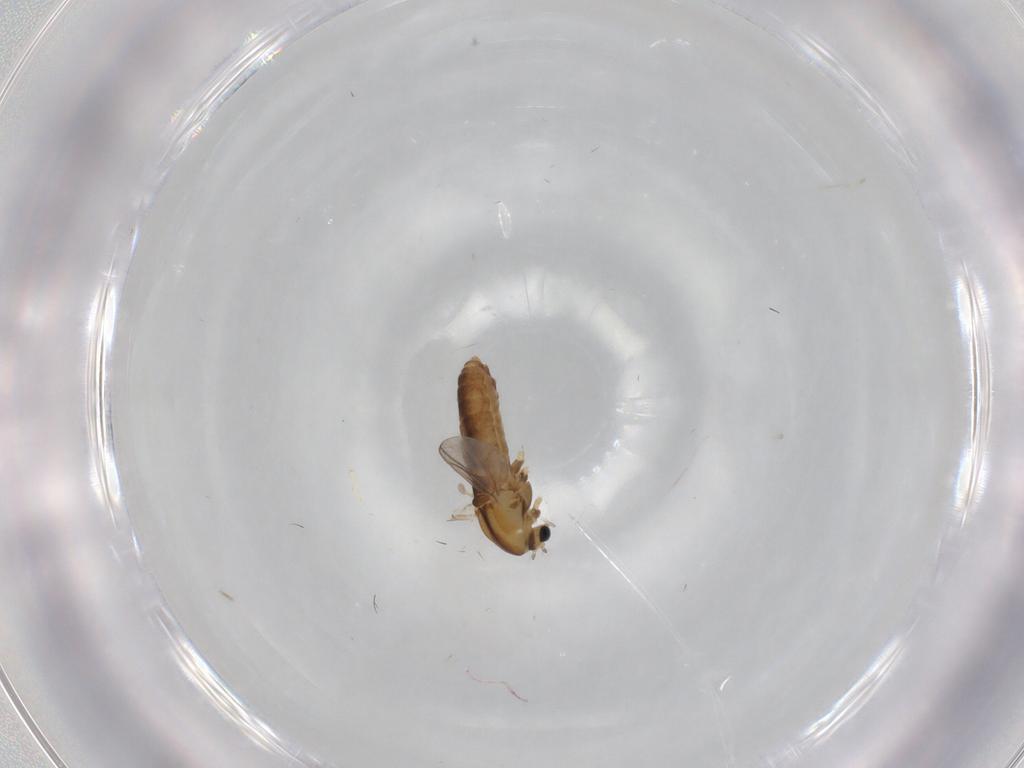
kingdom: Animalia
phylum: Arthropoda
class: Insecta
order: Diptera
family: Chironomidae
